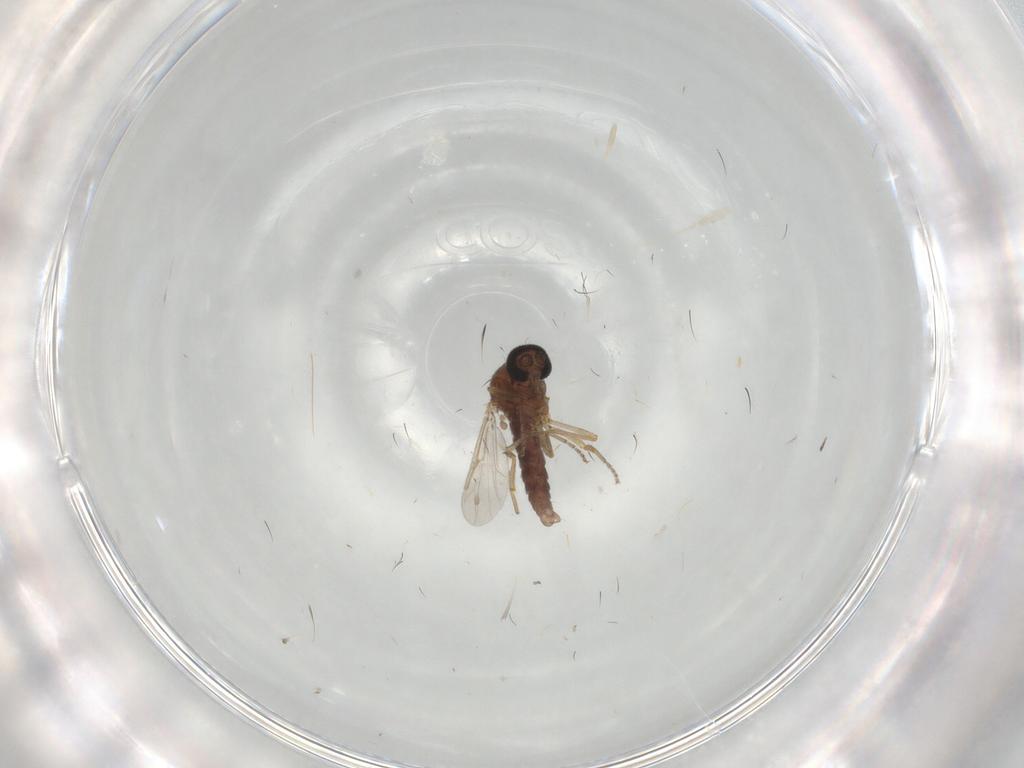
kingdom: Animalia
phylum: Arthropoda
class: Insecta
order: Diptera
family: Ceratopogonidae
